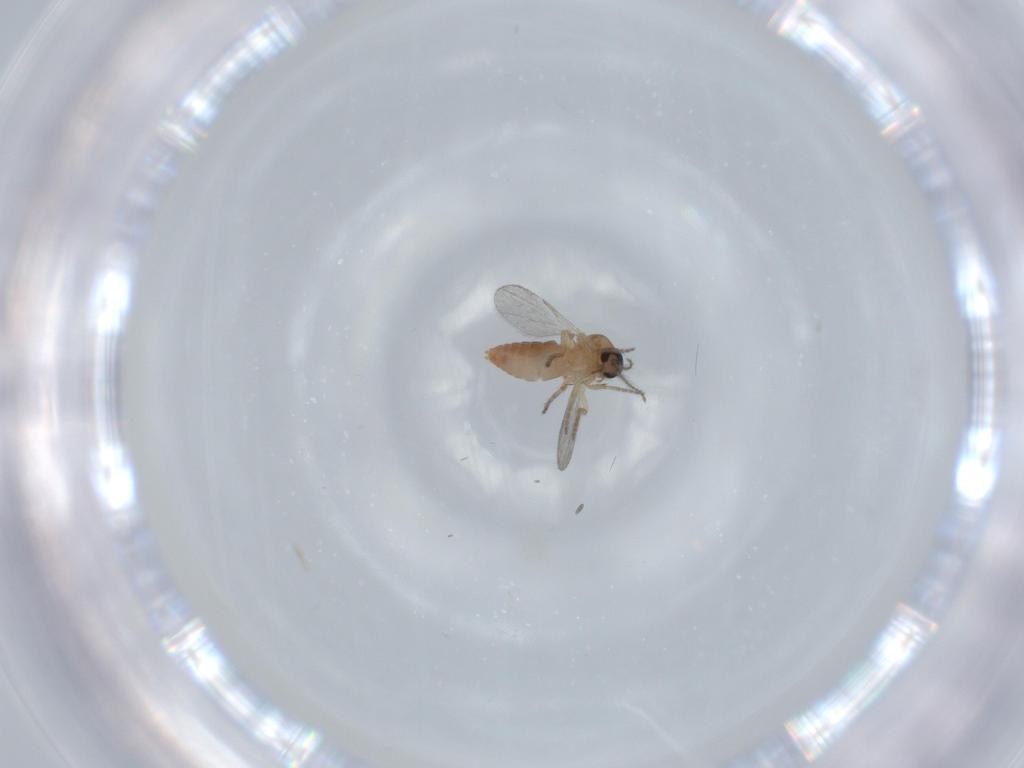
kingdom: Animalia
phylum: Arthropoda
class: Insecta
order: Diptera
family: Ceratopogonidae
